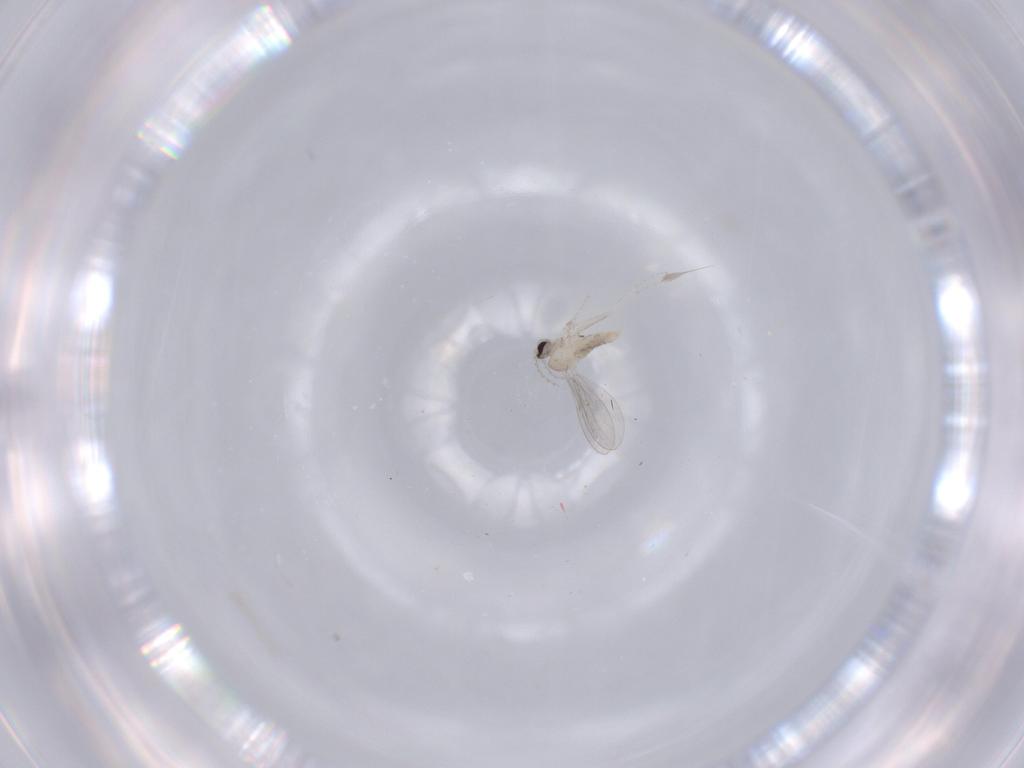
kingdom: Animalia
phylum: Arthropoda
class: Insecta
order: Diptera
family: Cecidomyiidae
